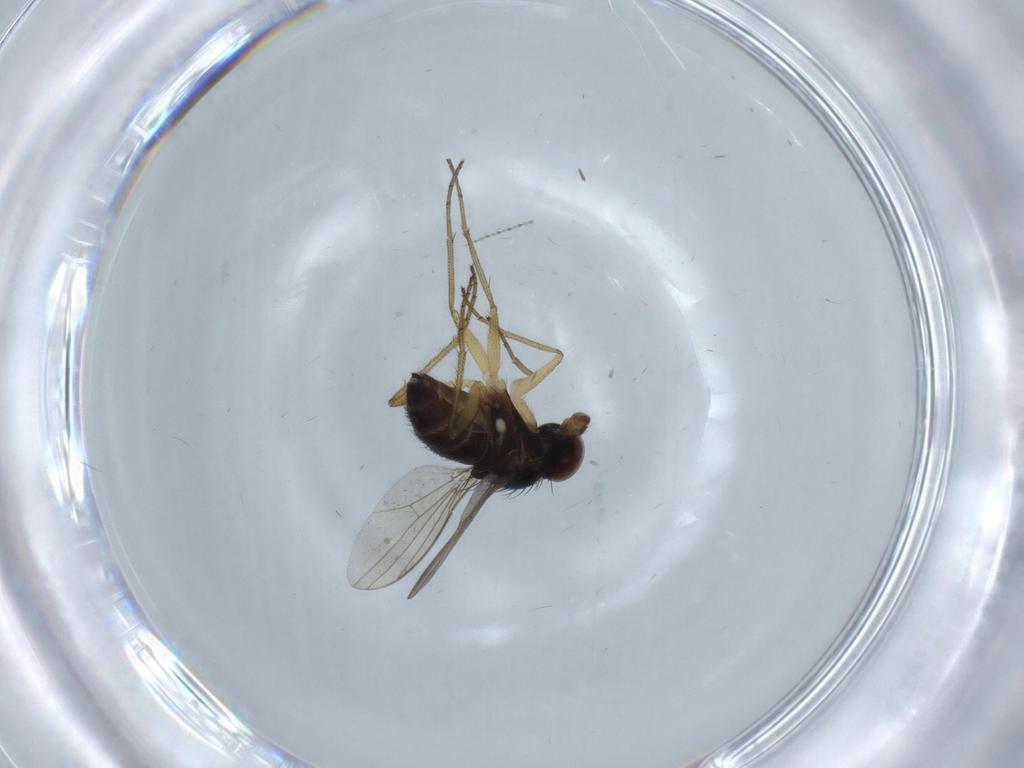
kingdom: Animalia
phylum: Arthropoda
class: Insecta
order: Diptera
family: Dolichopodidae
